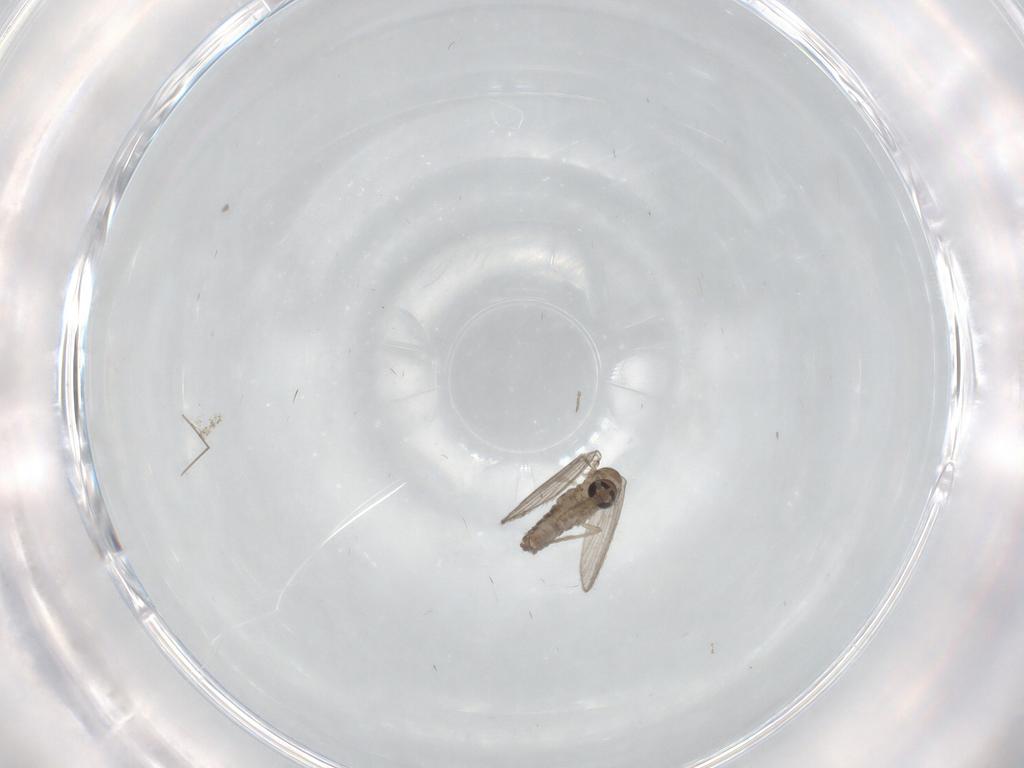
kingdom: Animalia
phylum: Arthropoda
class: Insecta
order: Diptera
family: Psychodidae
